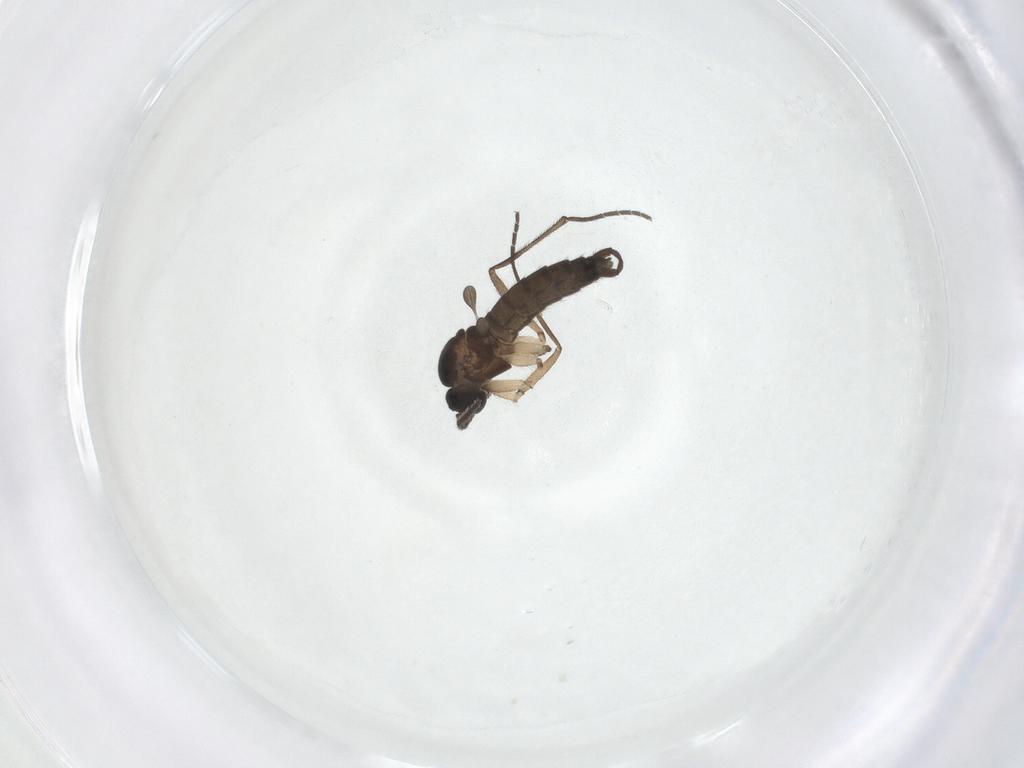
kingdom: Animalia
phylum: Arthropoda
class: Insecta
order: Diptera
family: Sciaridae
